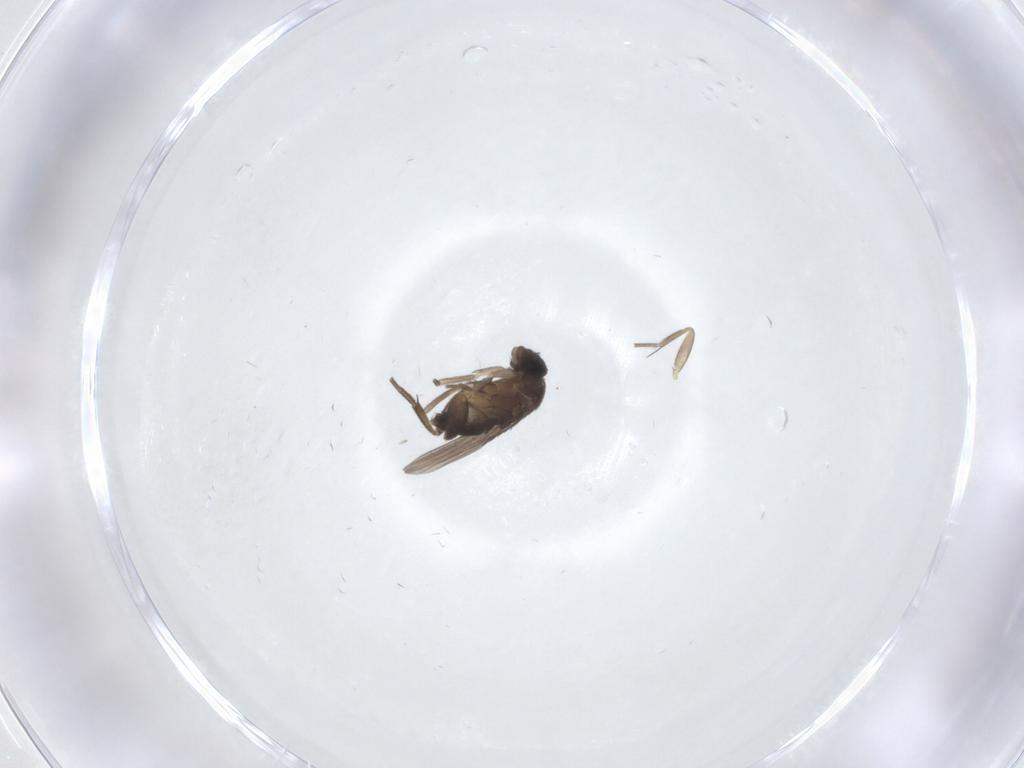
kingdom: Animalia
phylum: Arthropoda
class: Insecta
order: Diptera
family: Phoridae
